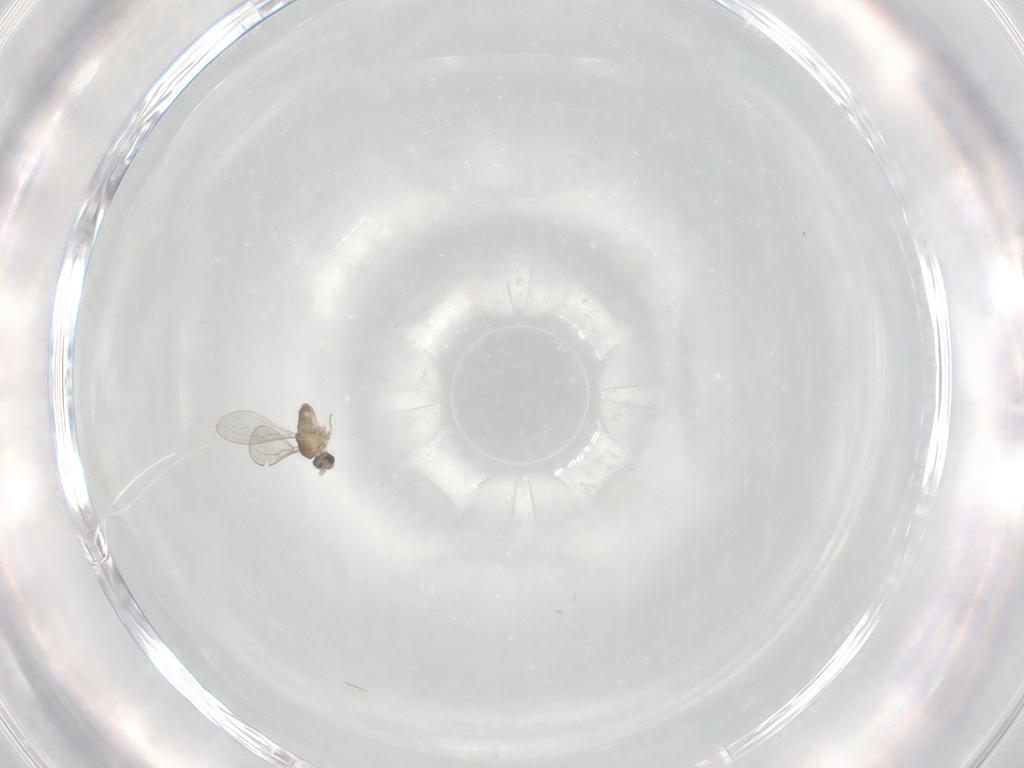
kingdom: Animalia
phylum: Arthropoda
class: Insecta
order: Diptera
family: Cecidomyiidae
